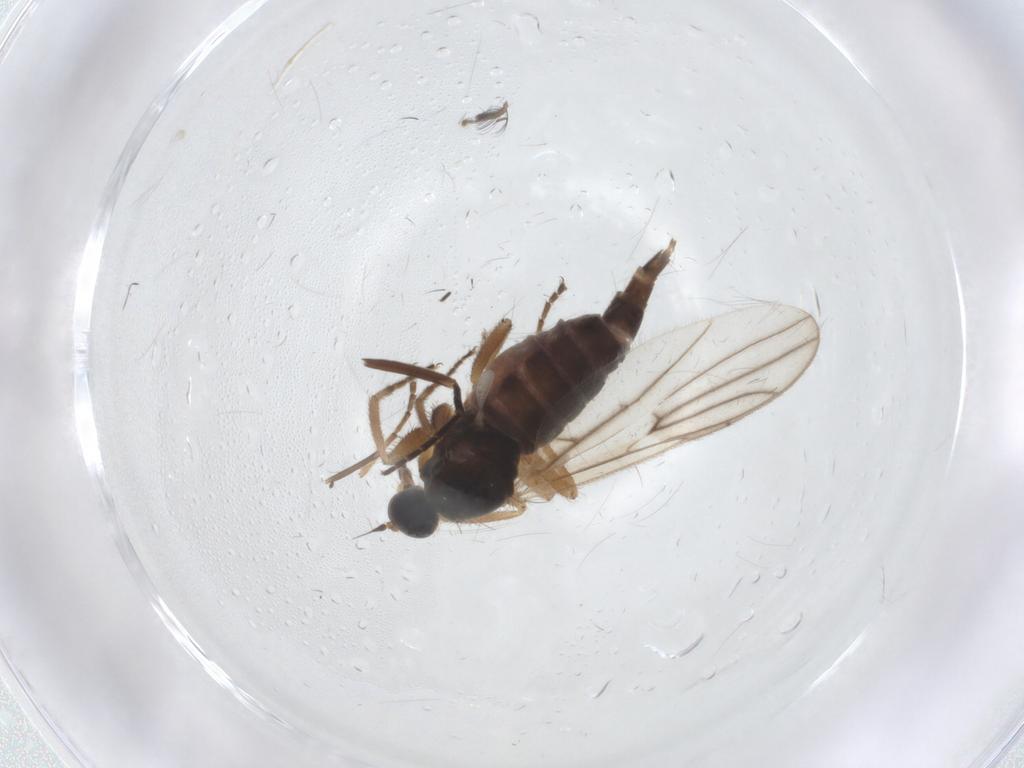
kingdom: Animalia
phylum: Arthropoda
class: Insecta
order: Diptera
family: Hybotidae
